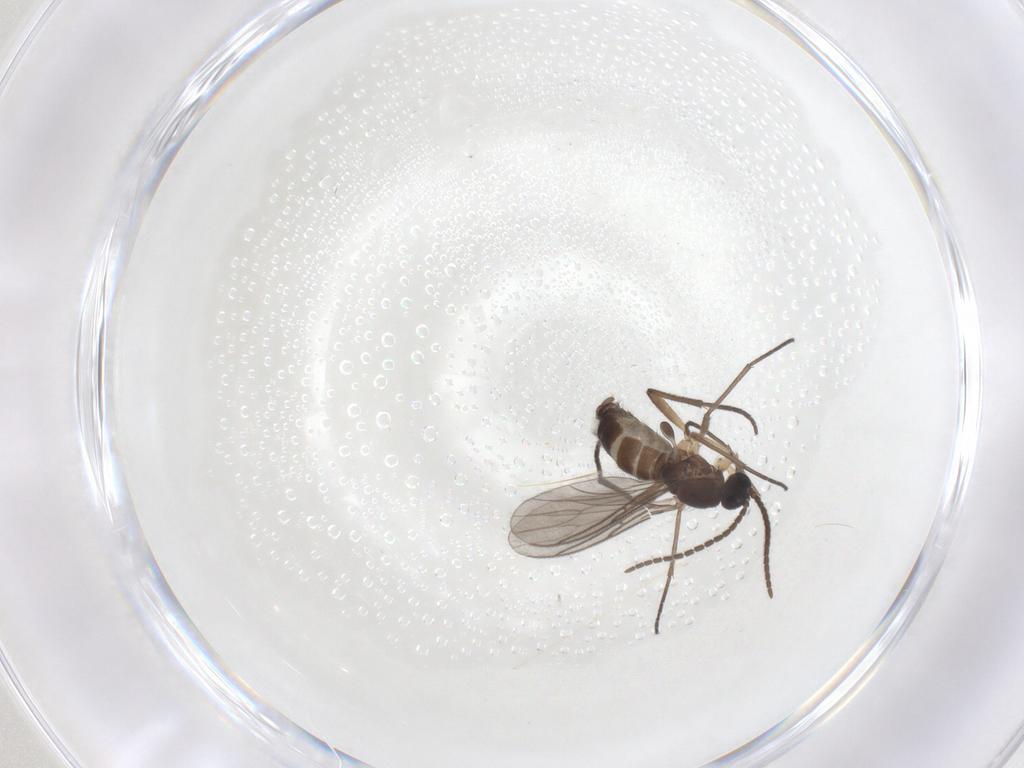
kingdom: Animalia
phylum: Arthropoda
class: Insecta
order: Diptera
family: Sciaridae
